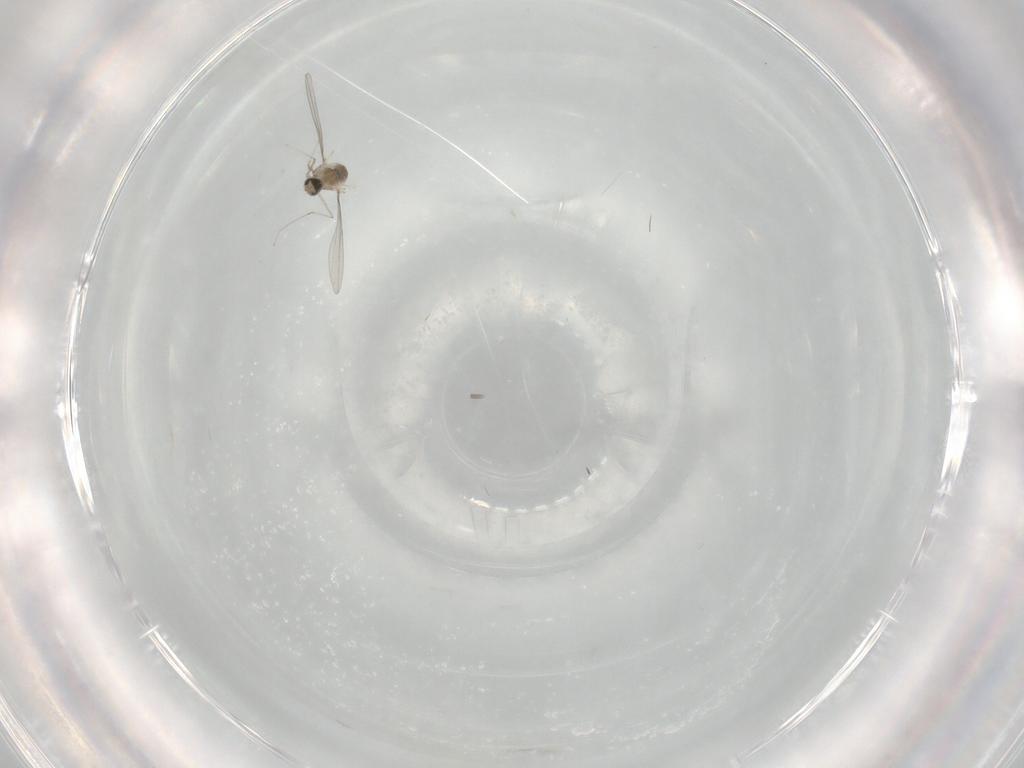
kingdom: Animalia
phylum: Arthropoda
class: Insecta
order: Diptera
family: Cecidomyiidae
